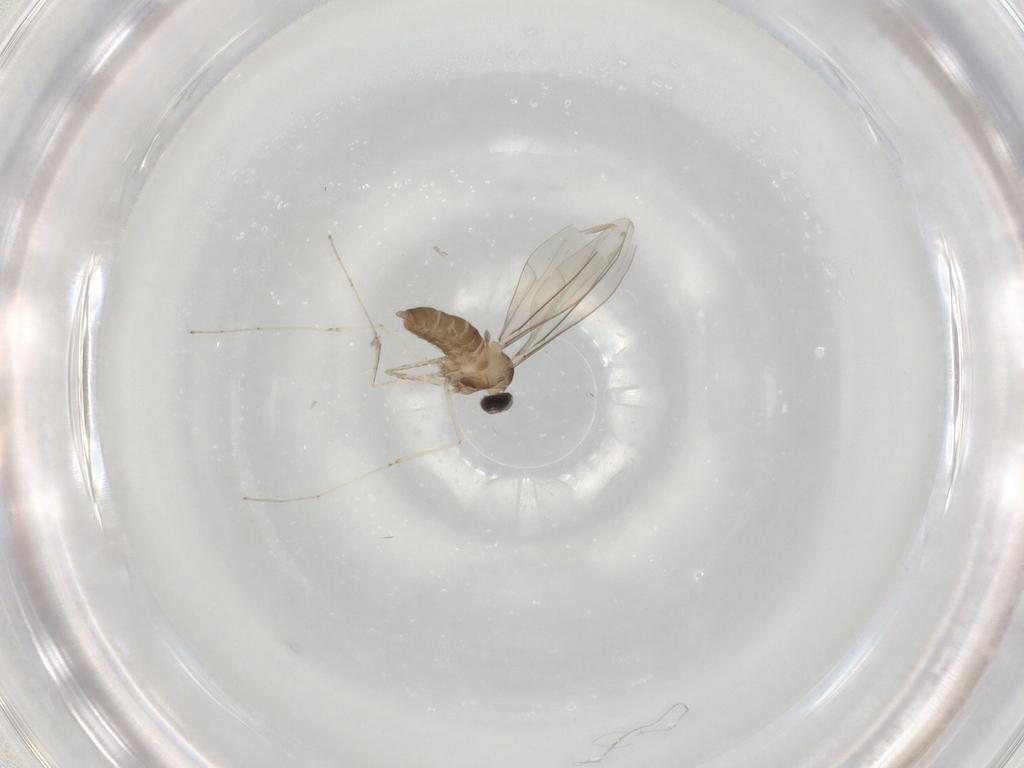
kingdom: Animalia
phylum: Arthropoda
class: Insecta
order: Diptera
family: Cecidomyiidae
